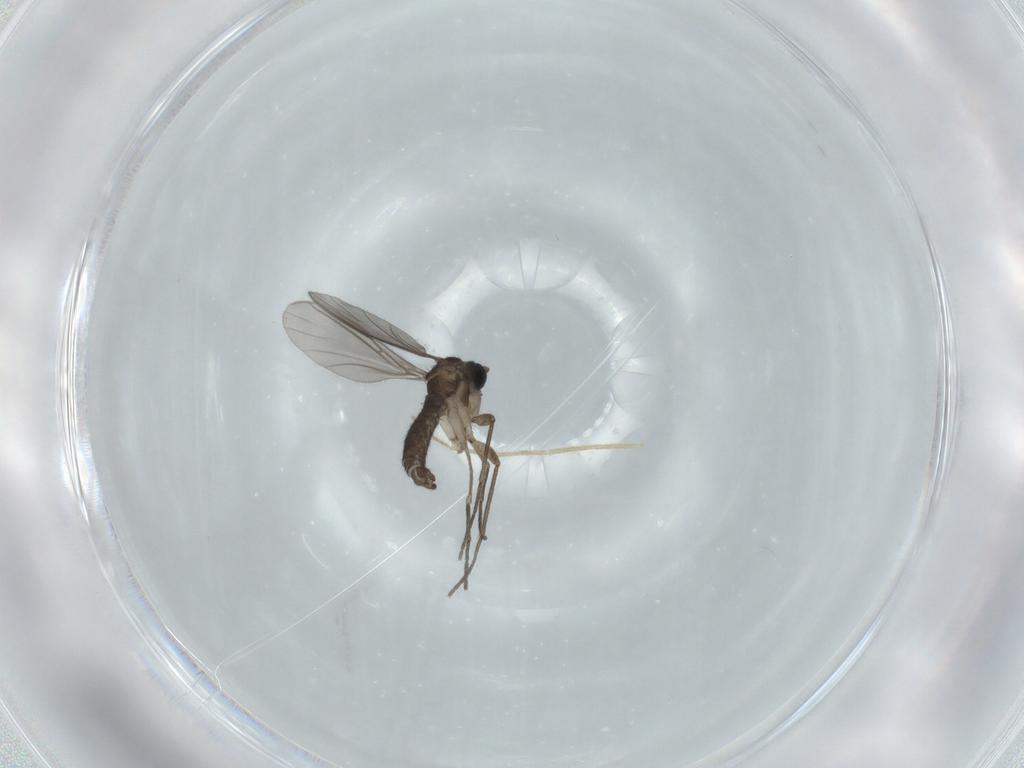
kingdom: Animalia
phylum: Arthropoda
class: Insecta
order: Diptera
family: Sciaridae
